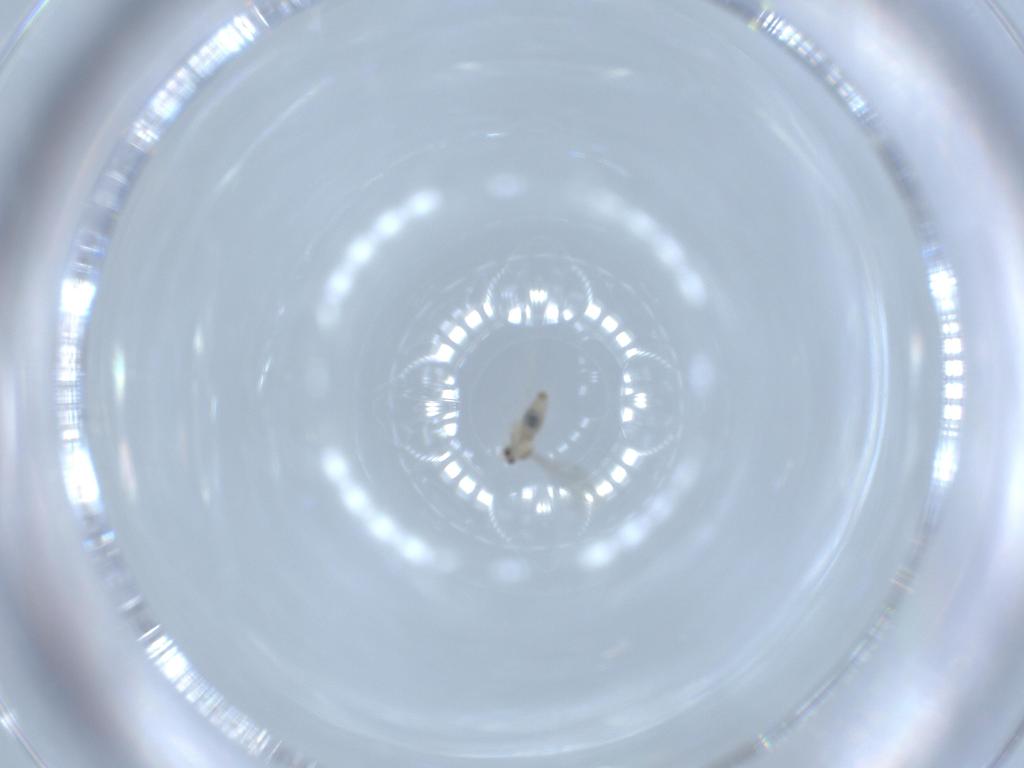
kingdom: Animalia
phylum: Arthropoda
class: Insecta
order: Diptera
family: Cecidomyiidae
